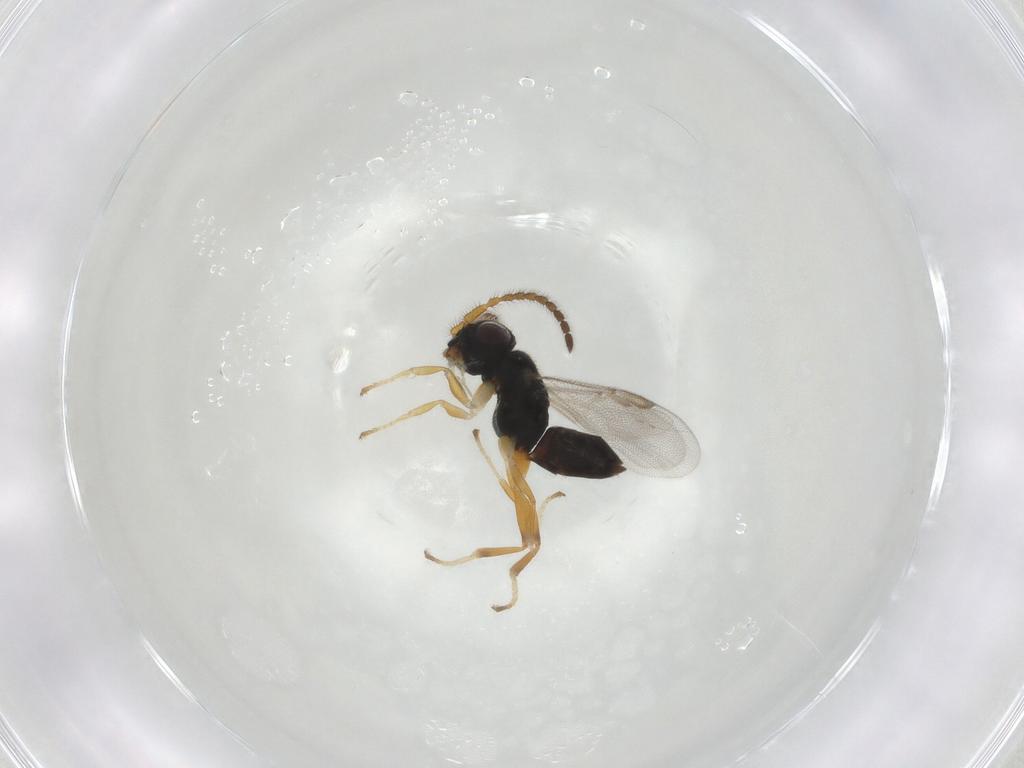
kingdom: Animalia
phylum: Arthropoda
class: Insecta
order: Hymenoptera
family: Dryinidae
